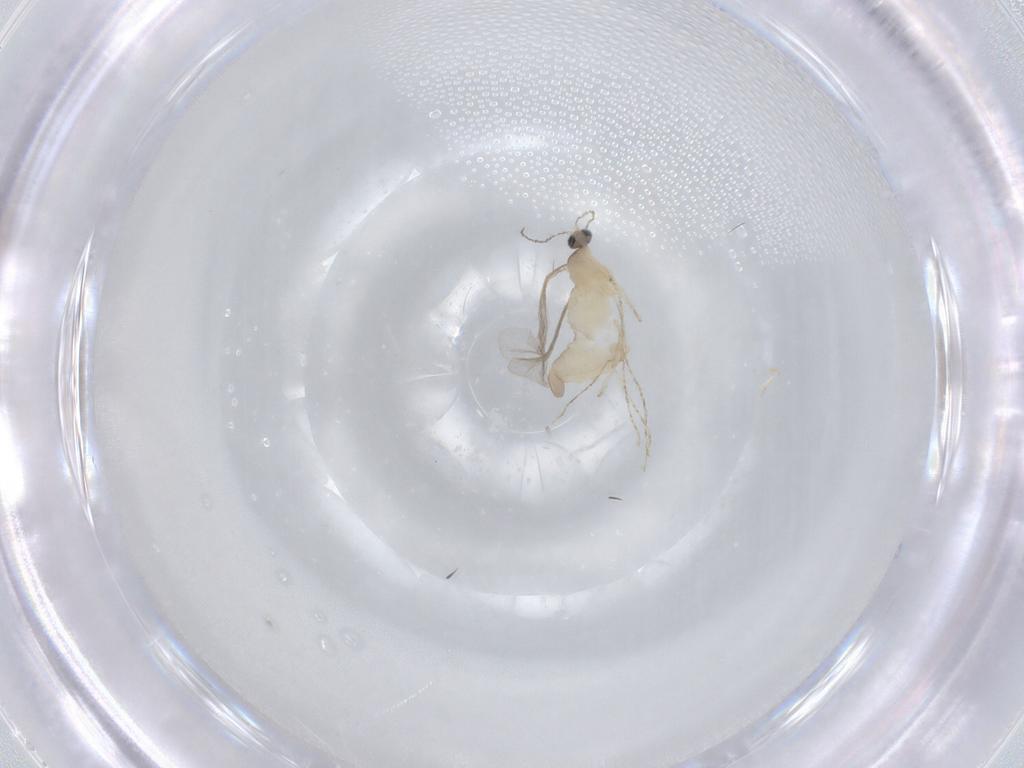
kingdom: Animalia
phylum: Arthropoda
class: Insecta
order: Diptera
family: Cecidomyiidae
